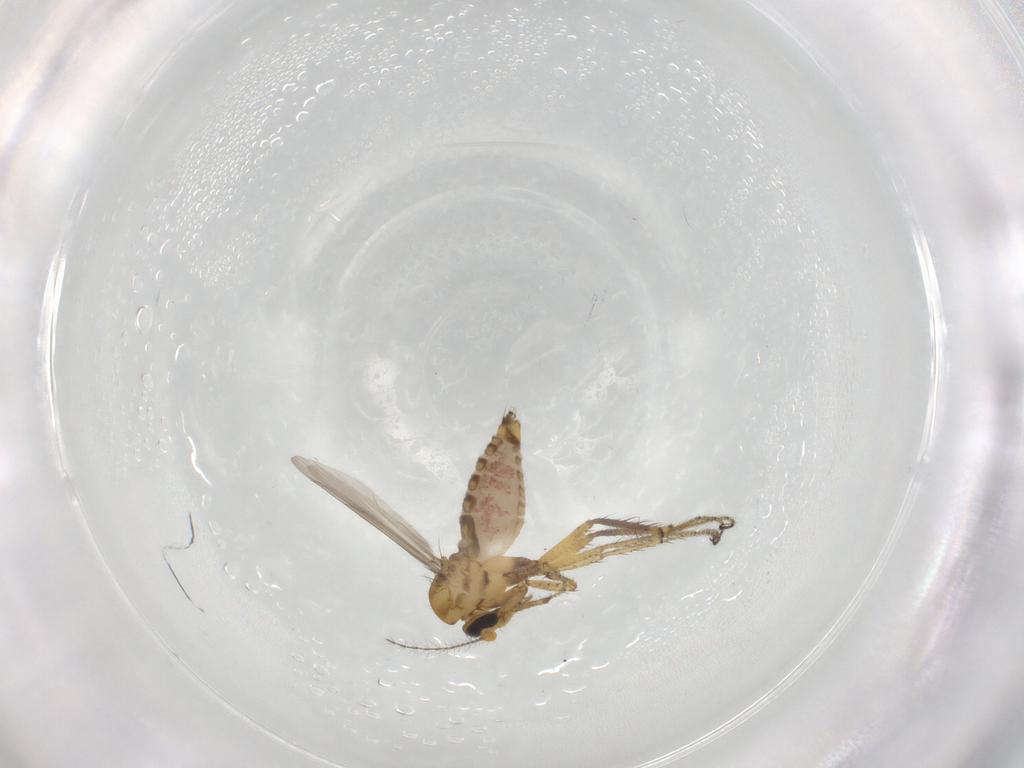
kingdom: Animalia
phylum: Arthropoda
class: Insecta
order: Diptera
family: Ceratopogonidae
